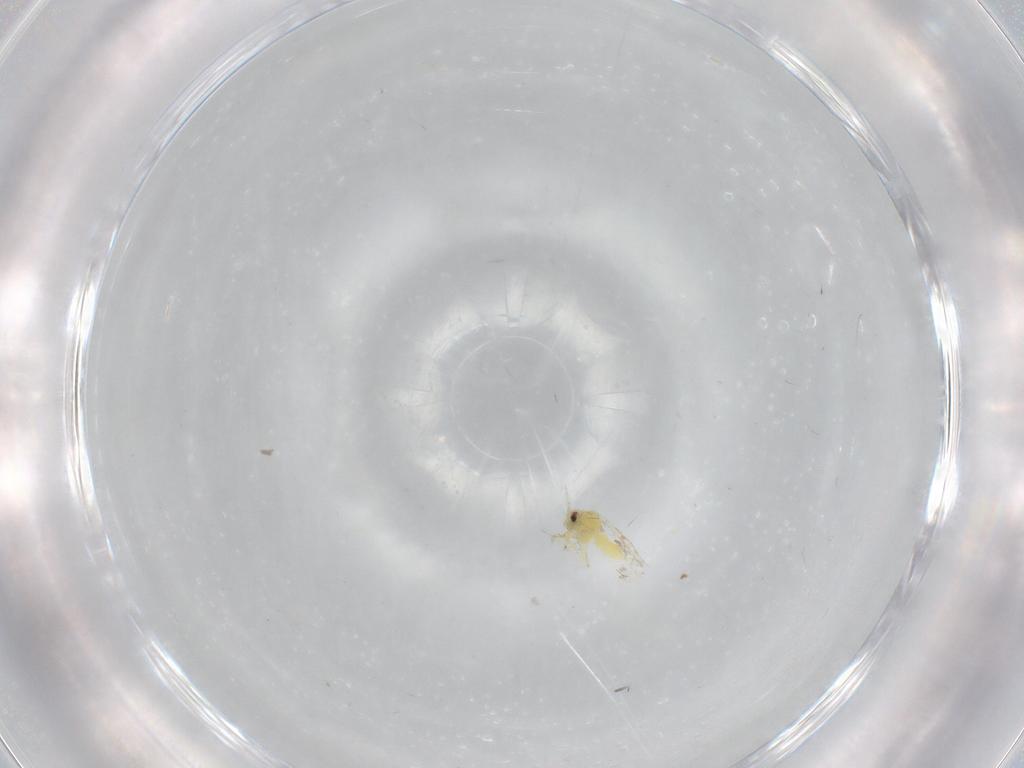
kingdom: Animalia
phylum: Arthropoda
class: Insecta
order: Hemiptera
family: Aleyrodidae
